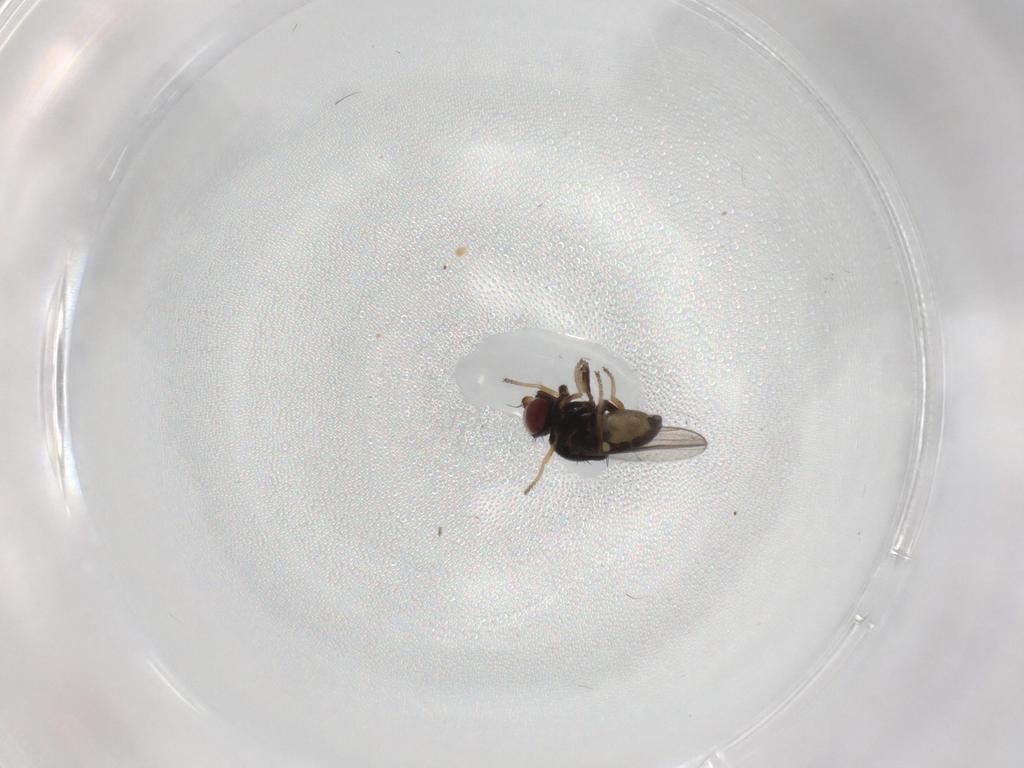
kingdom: Animalia
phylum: Arthropoda
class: Insecta
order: Diptera
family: Chloropidae
